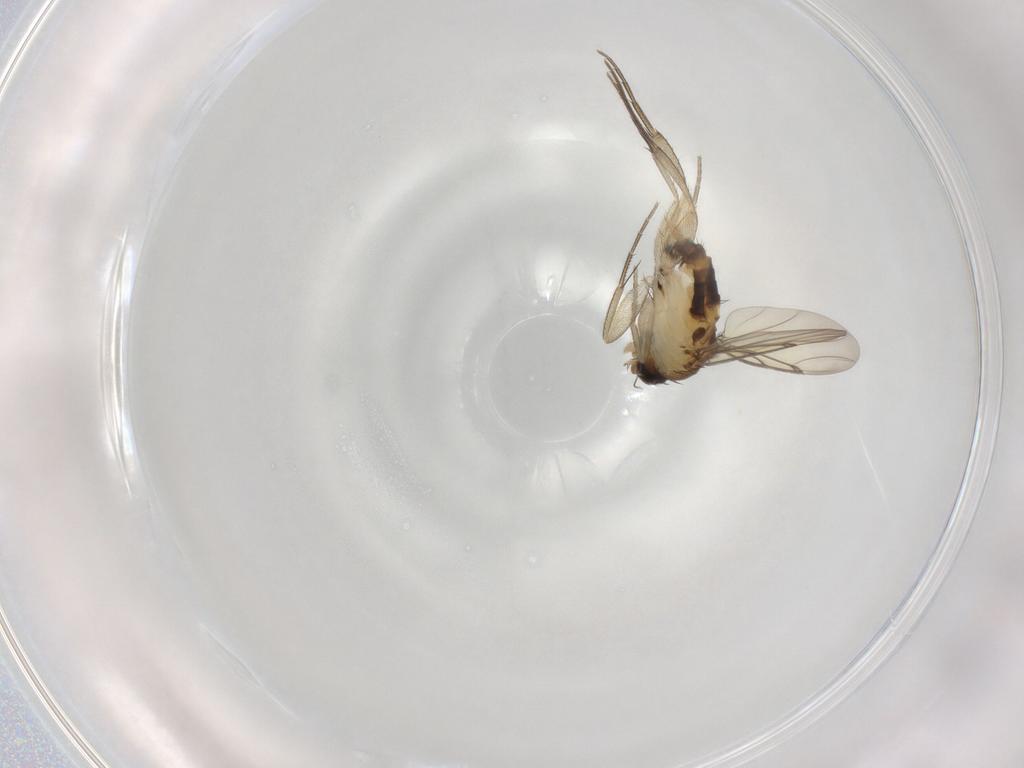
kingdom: Animalia
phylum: Arthropoda
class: Insecta
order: Diptera
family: Phoridae
